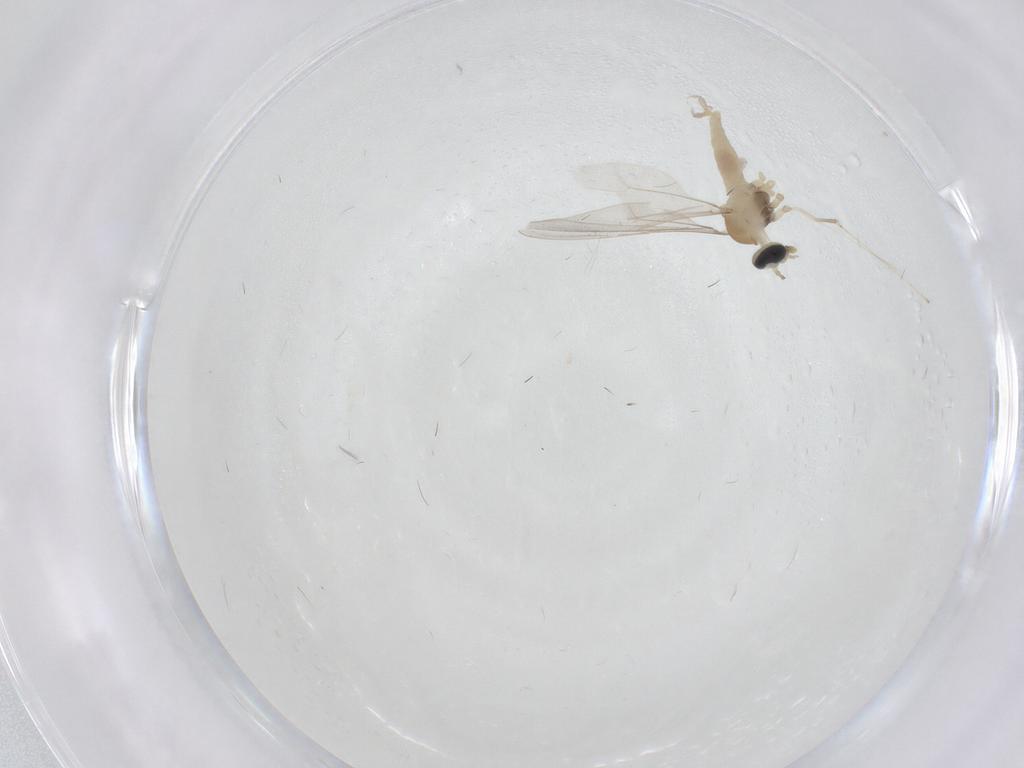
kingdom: Animalia
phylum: Arthropoda
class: Insecta
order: Diptera
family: Cecidomyiidae
